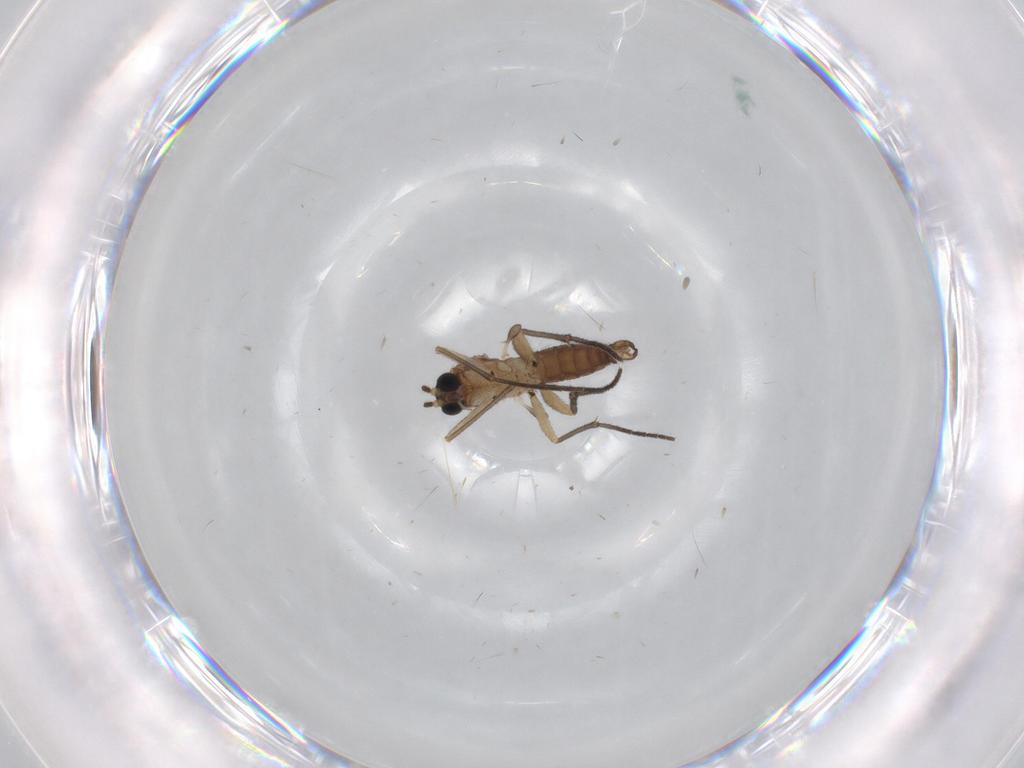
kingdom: Animalia
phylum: Arthropoda
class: Insecta
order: Diptera
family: Sciaridae
